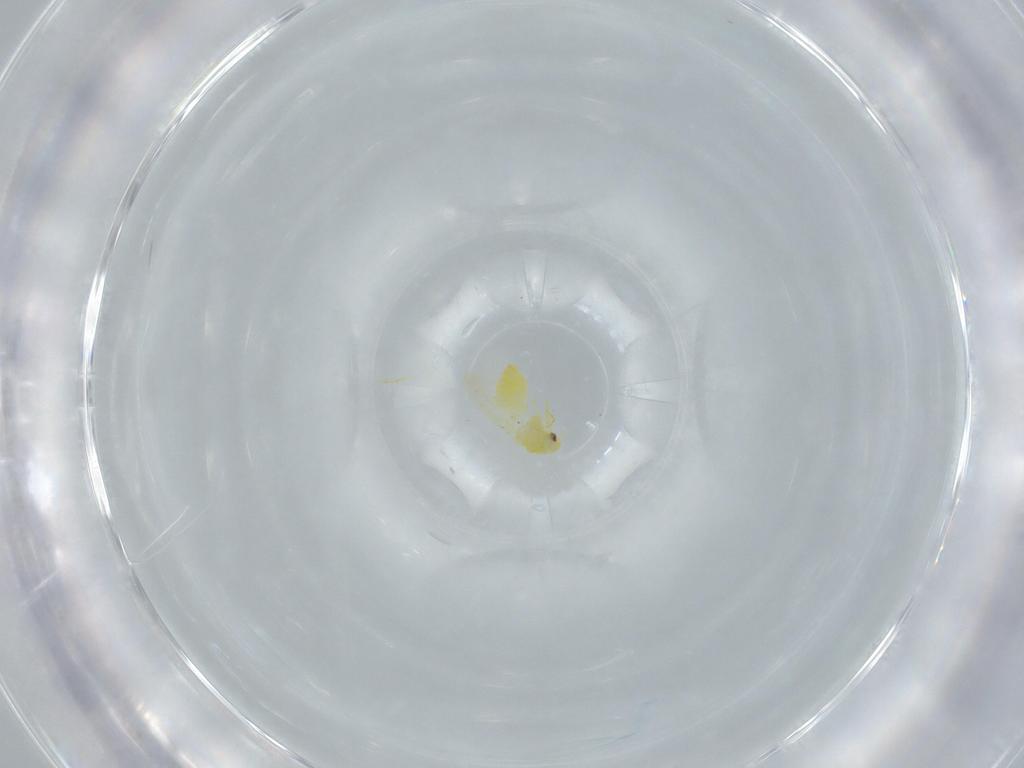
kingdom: Animalia
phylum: Arthropoda
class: Insecta
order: Hemiptera
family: Aleyrodidae
